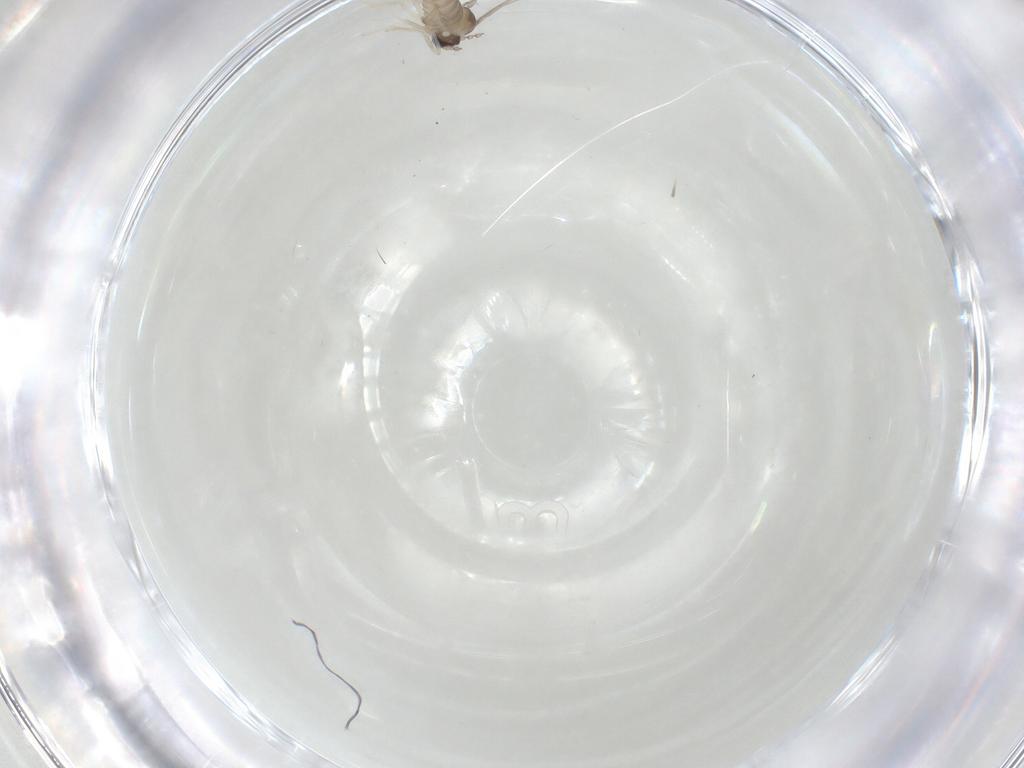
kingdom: Animalia
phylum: Arthropoda
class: Insecta
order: Diptera
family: Cecidomyiidae
